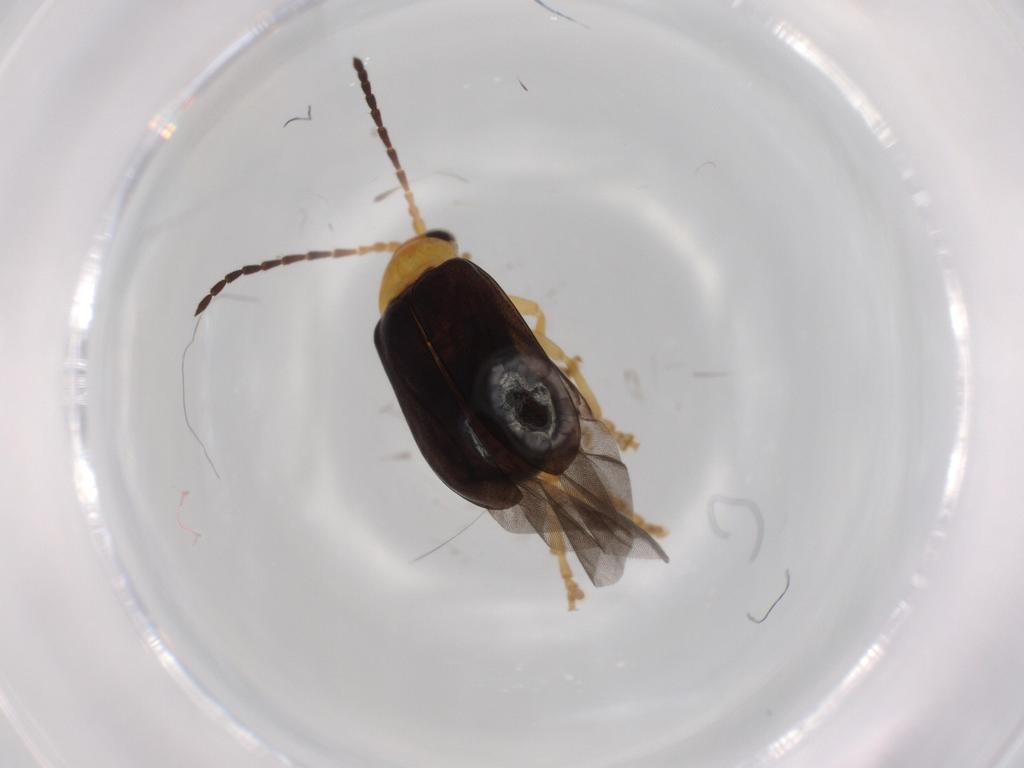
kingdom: Animalia
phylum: Arthropoda
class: Insecta
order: Coleoptera
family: Chrysomelidae
